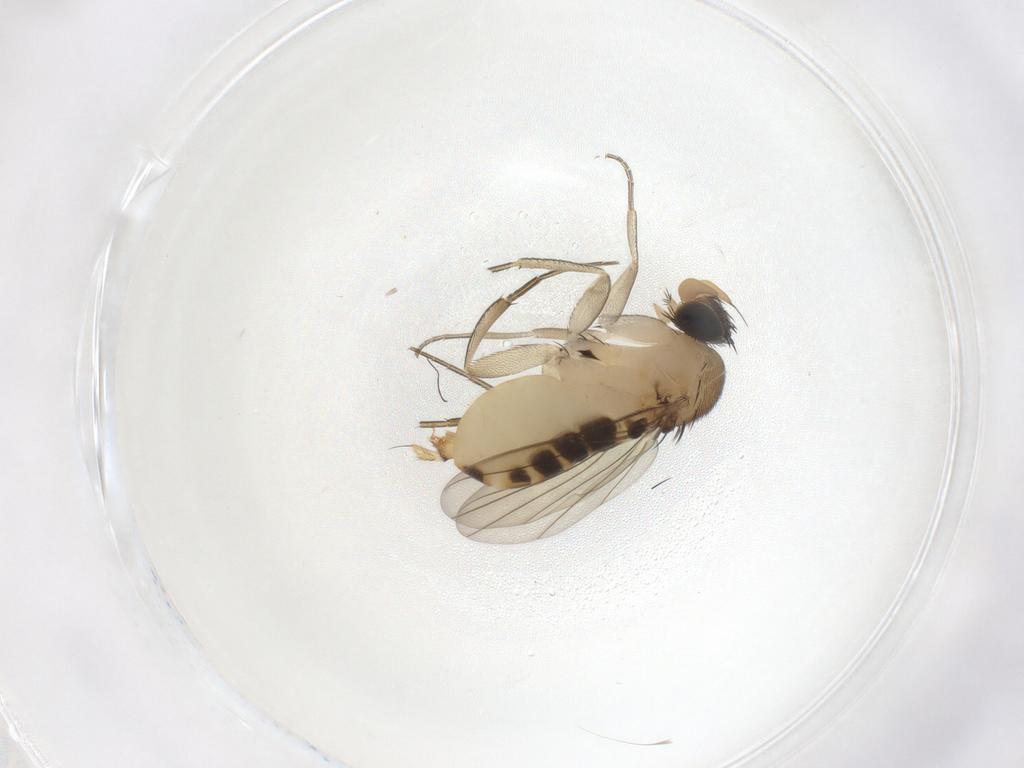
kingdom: Animalia
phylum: Arthropoda
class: Insecta
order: Diptera
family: Phoridae
